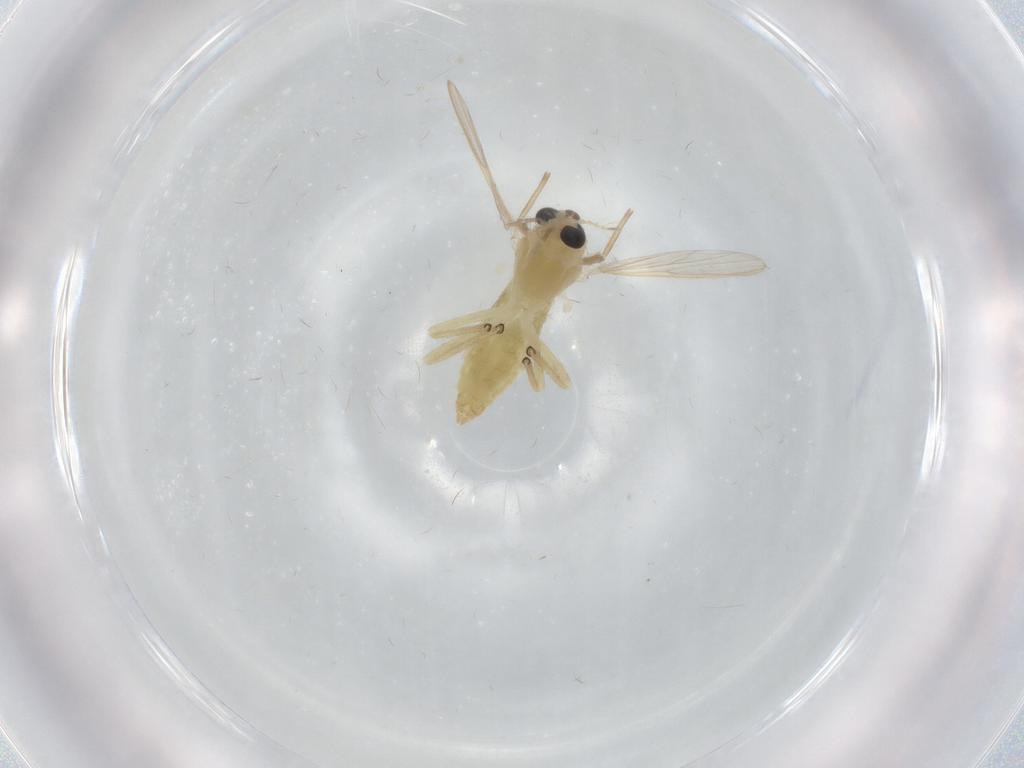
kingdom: Animalia
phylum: Arthropoda
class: Insecta
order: Diptera
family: Chironomidae
